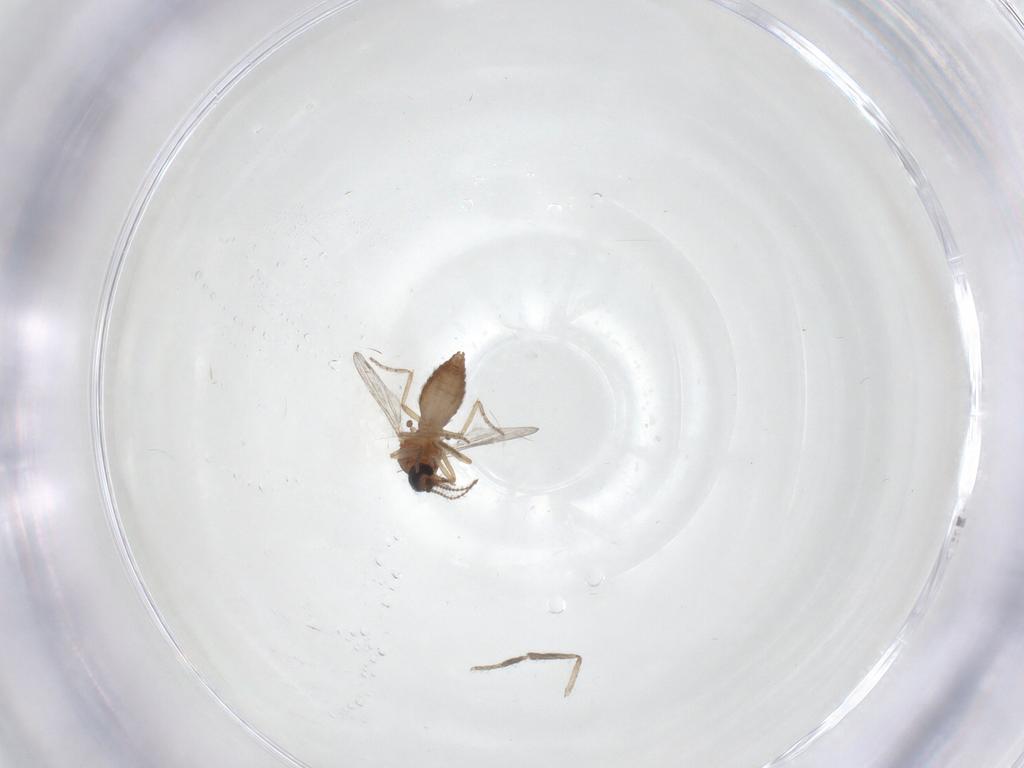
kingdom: Animalia
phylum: Arthropoda
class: Insecta
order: Diptera
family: Ceratopogonidae
